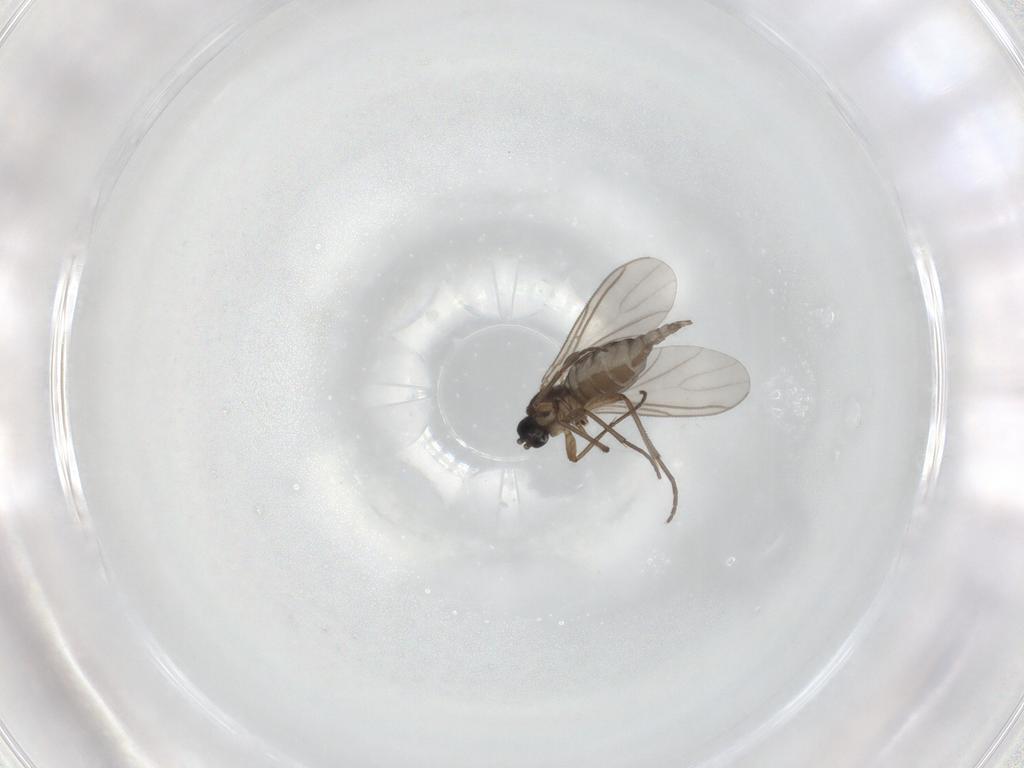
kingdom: Animalia
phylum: Arthropoda
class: Insecta
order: Diptera
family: Sciaridae
